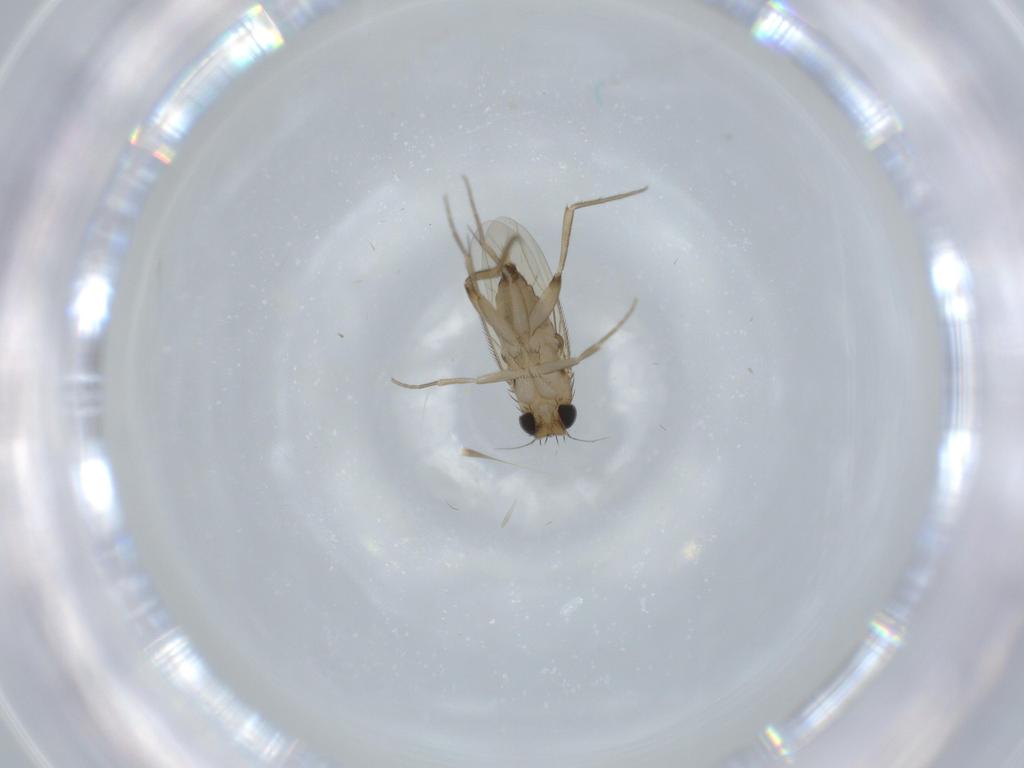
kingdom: Animalia
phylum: Arthropoda
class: Insecta
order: Diptera
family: Phoridae
